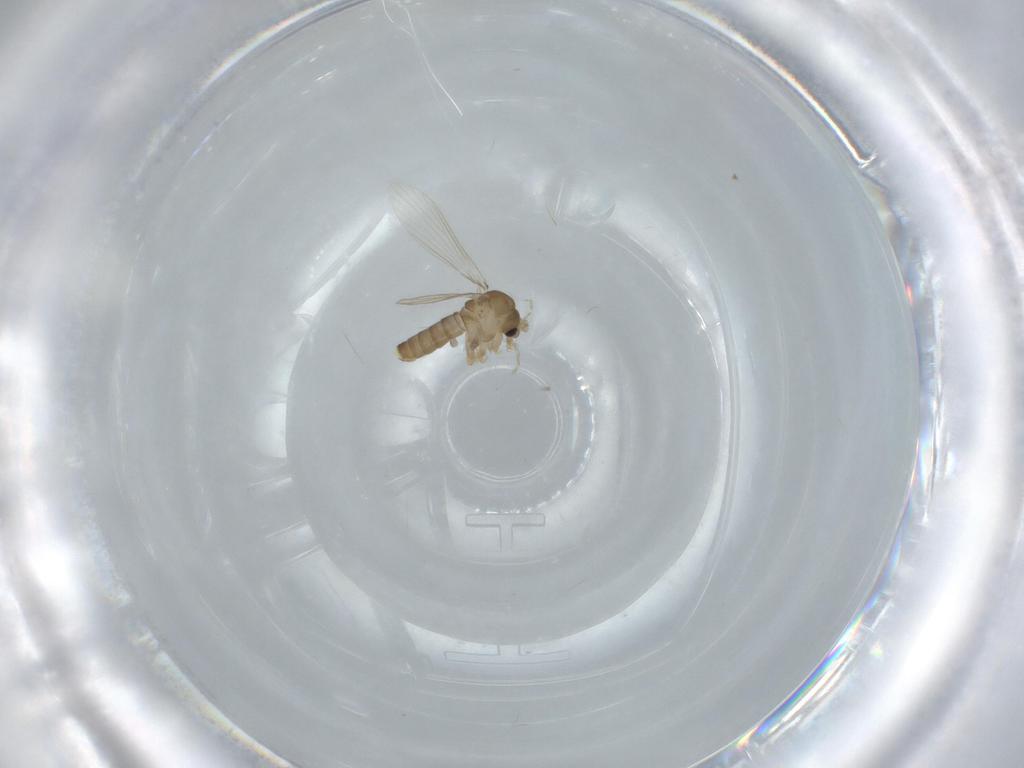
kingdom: Animalia
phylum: Arthropoda
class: Insecta
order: Diptera
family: Psychodidae
